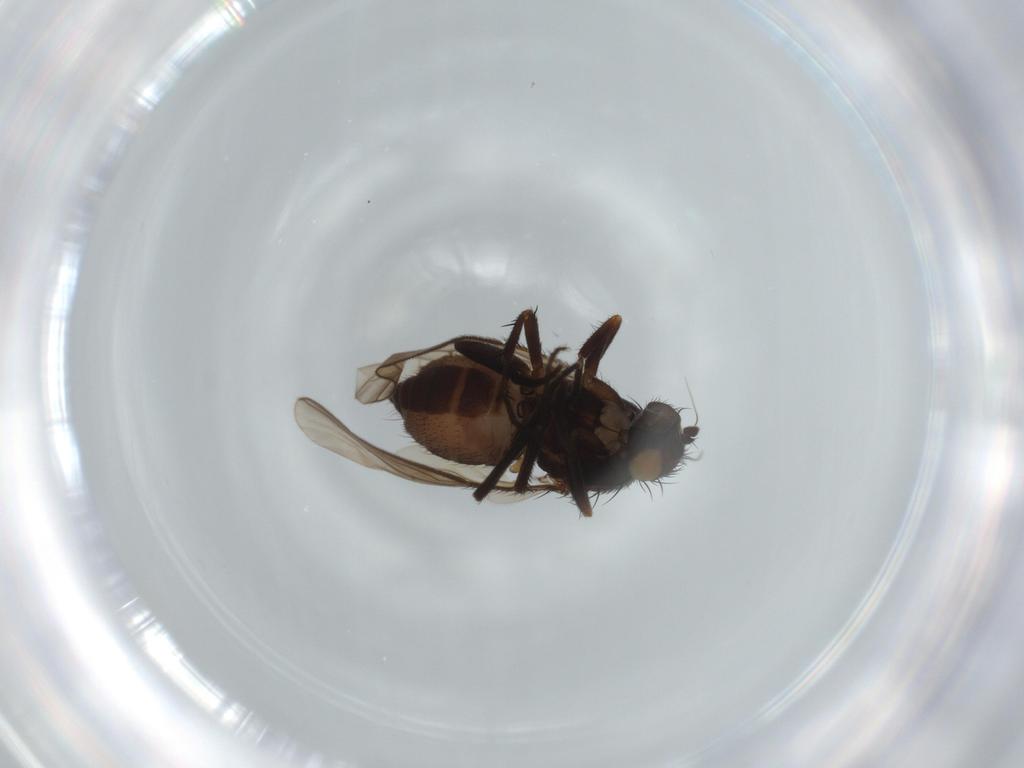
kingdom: Animalia
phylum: Arthropoda
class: Insecta
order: Diptera
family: Sphaeroceridae
